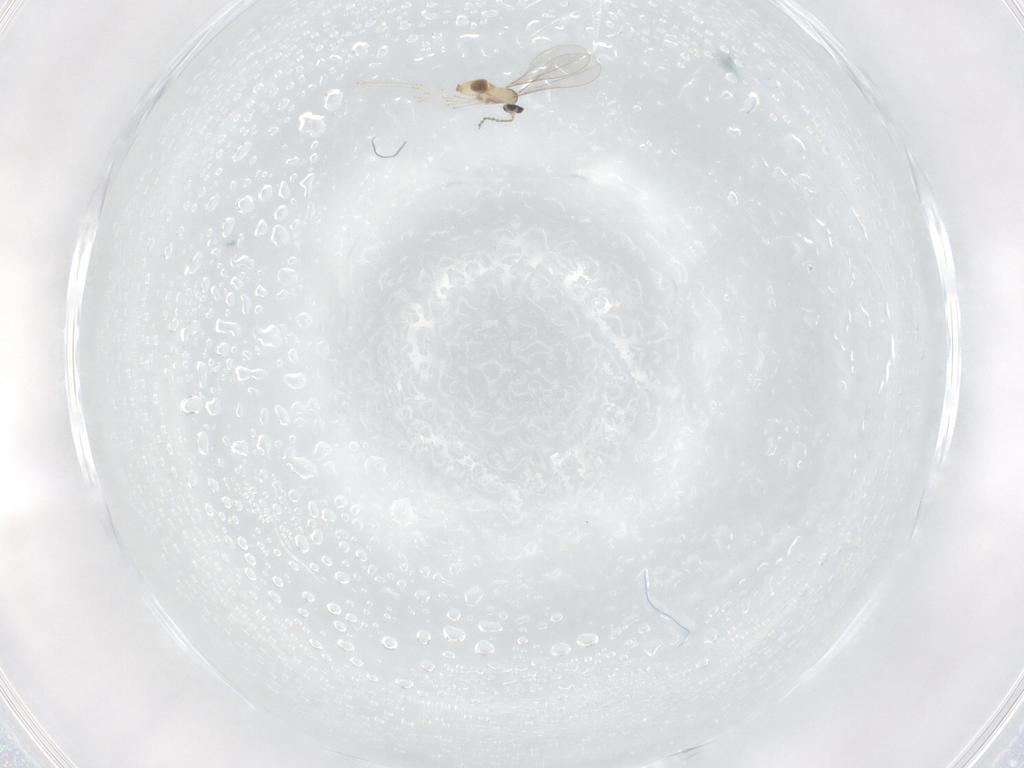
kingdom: Animalia
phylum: Arthropoda
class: Insecta
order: Diptera
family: Cecidomyiidae
